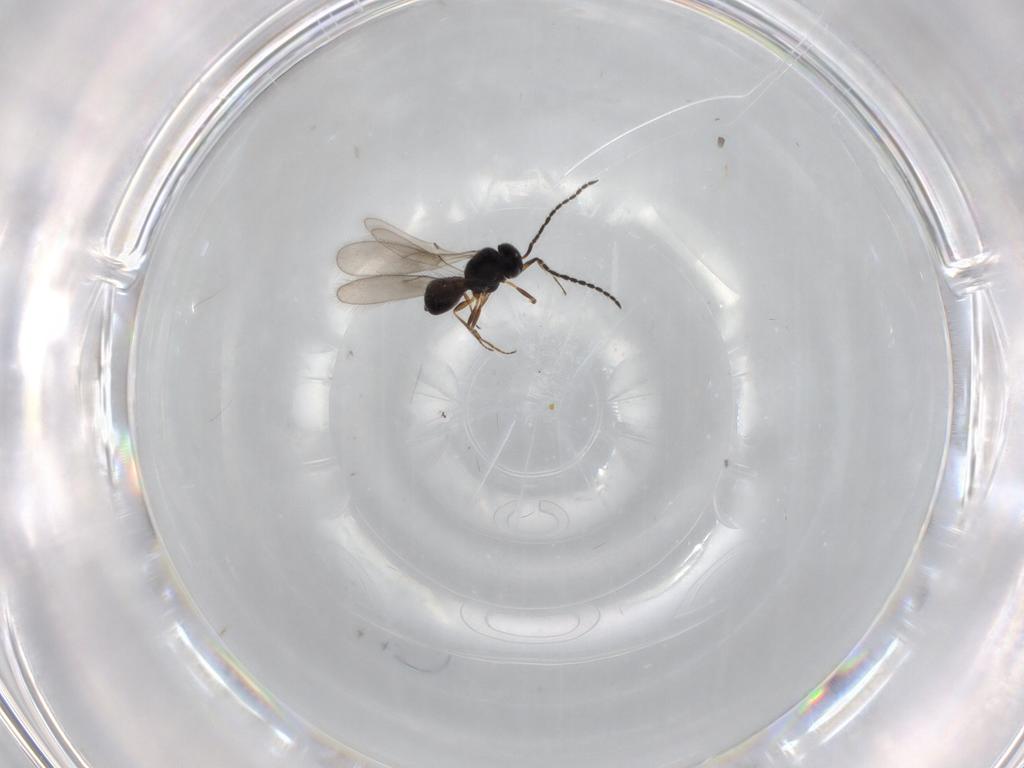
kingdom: Animalia
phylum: Arthropoda
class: Insecta
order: Hymenoptera
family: Scelionidae
